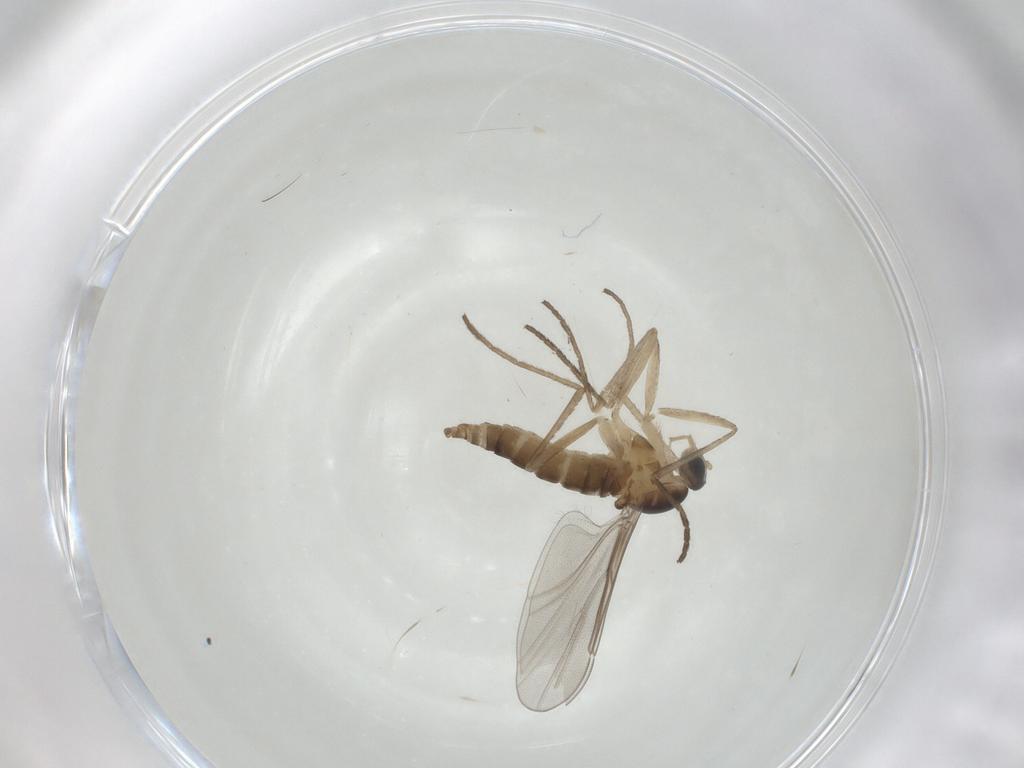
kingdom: Animalia
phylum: Arthropoda
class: Insecta
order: Diptera
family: Cecidomyiidae
